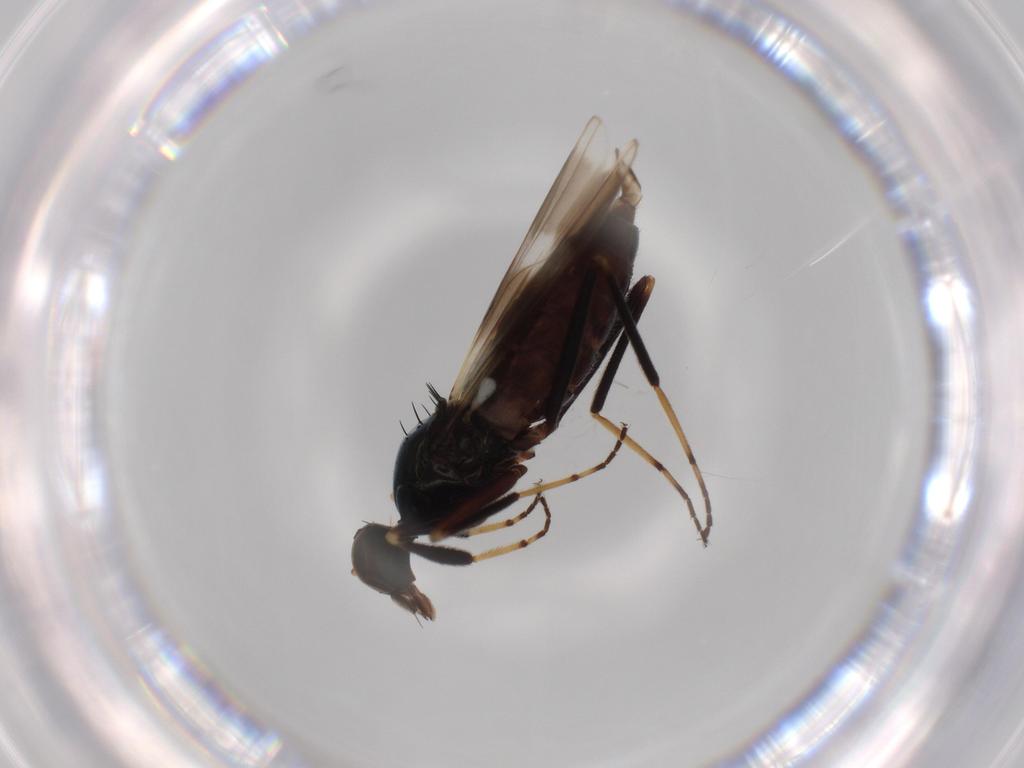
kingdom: Animalia
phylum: Arthropoda
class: Insecta
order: Diptera
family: Hybotidae
